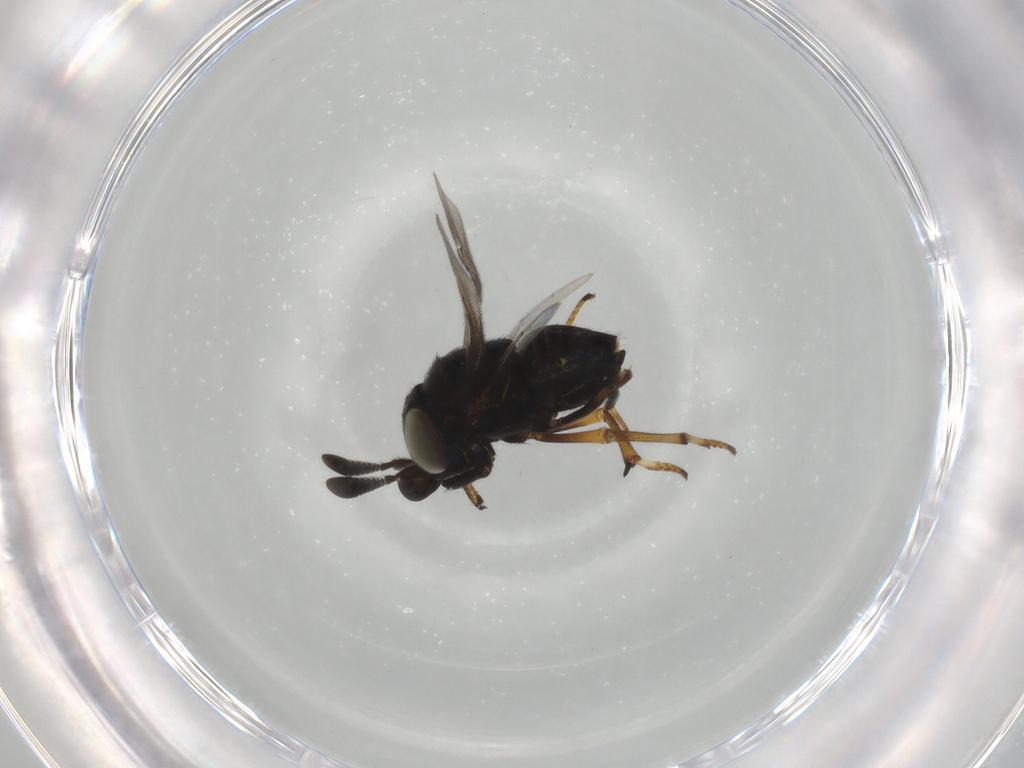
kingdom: Animalia
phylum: Arthropoda
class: Insecta
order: Hymenoptera
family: Encyrtidae
